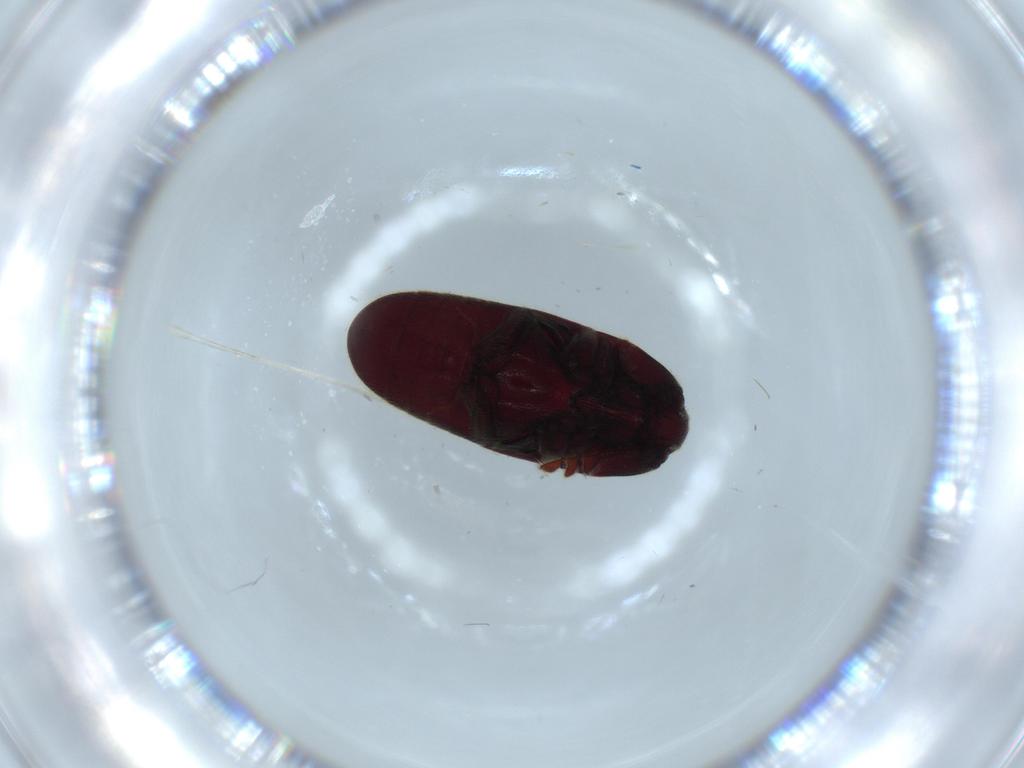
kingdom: Animalia
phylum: Arthropoda
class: Insecta
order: Coleoptera
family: Throscidae
